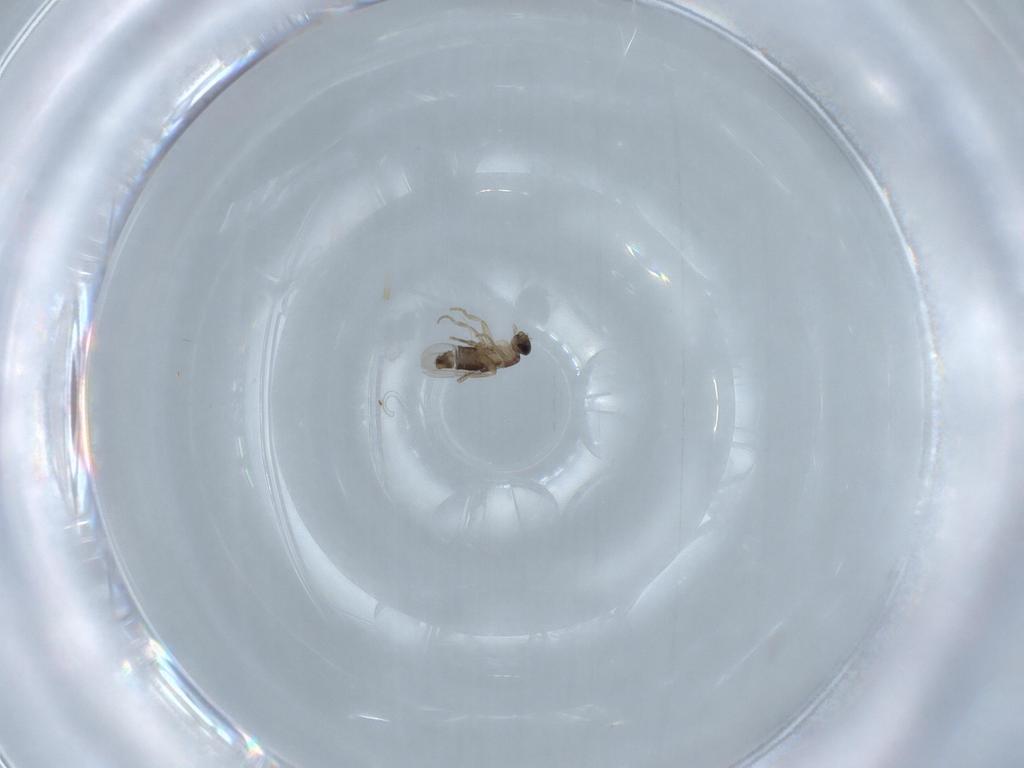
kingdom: Animalia
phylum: Arthropoda
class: Insecta
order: Diptera
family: Phoridae
